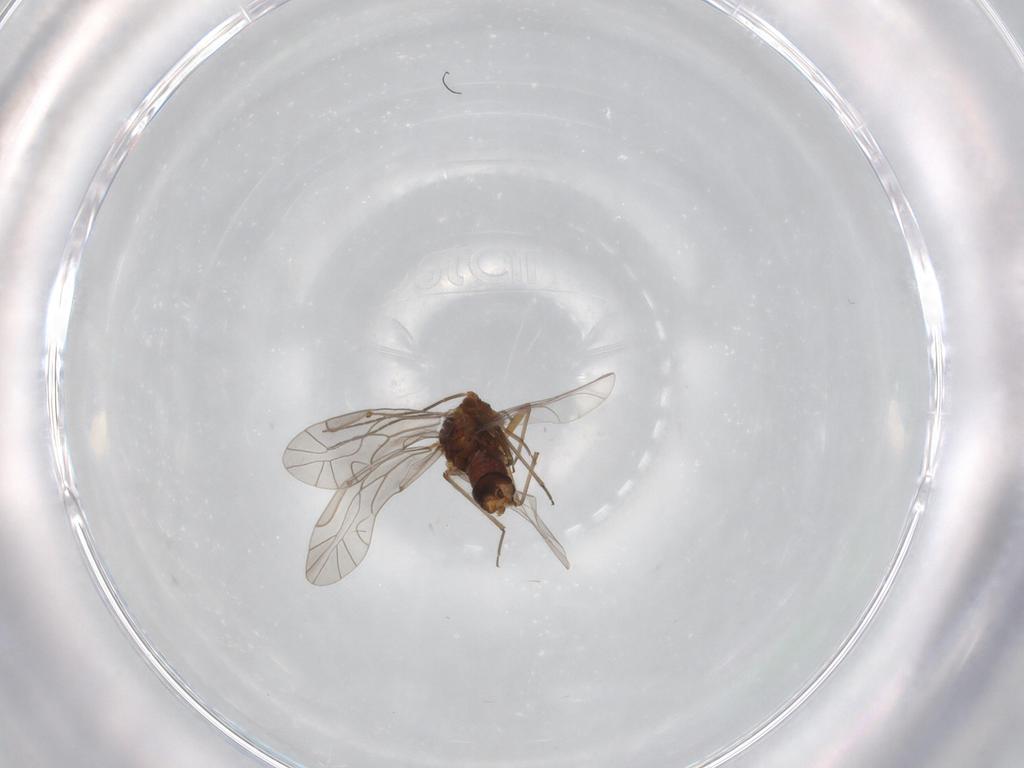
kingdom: Animalia
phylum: Arthropoda
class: Insecta
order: Psocodea
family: Lachesillidae
